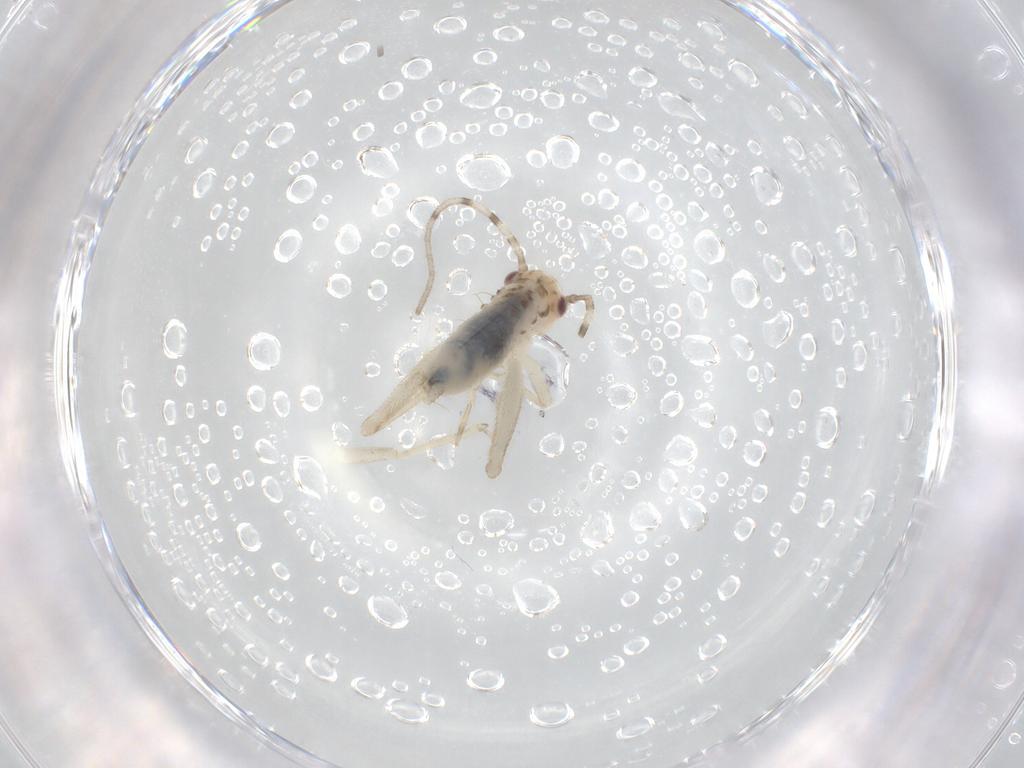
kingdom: Animalia
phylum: Arthropoda
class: Insecta
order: Orthoptera
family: Trigonidiidae
